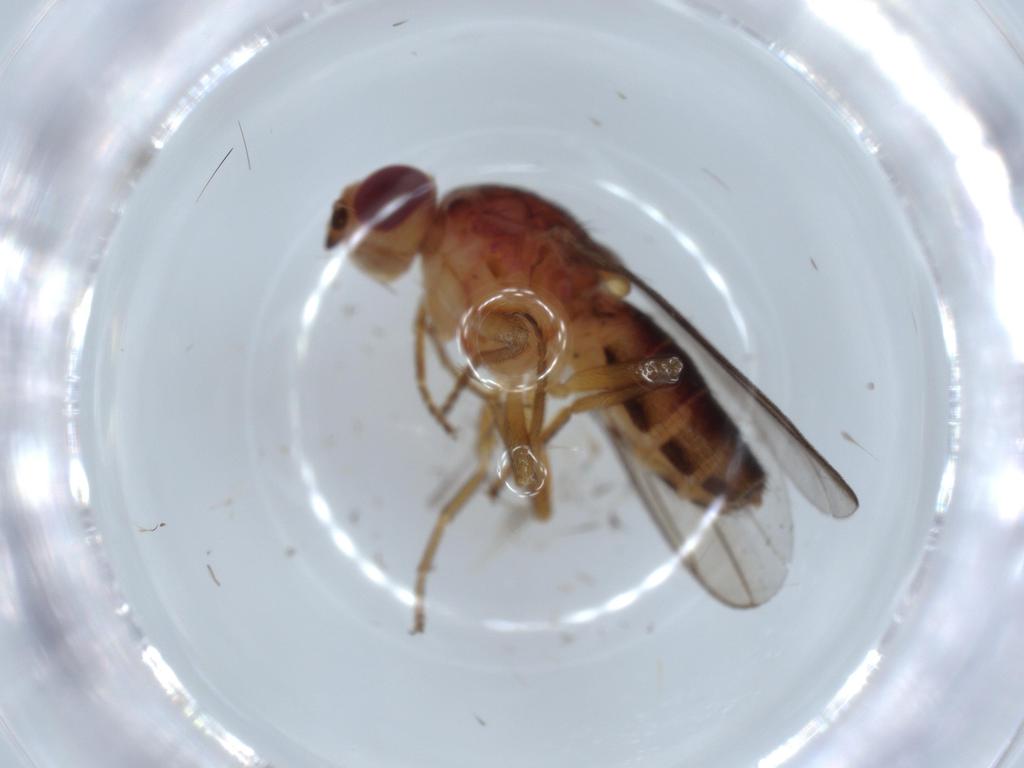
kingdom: Animalia
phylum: Arthropoda
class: Insecta
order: Diptera
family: Chloropidae
